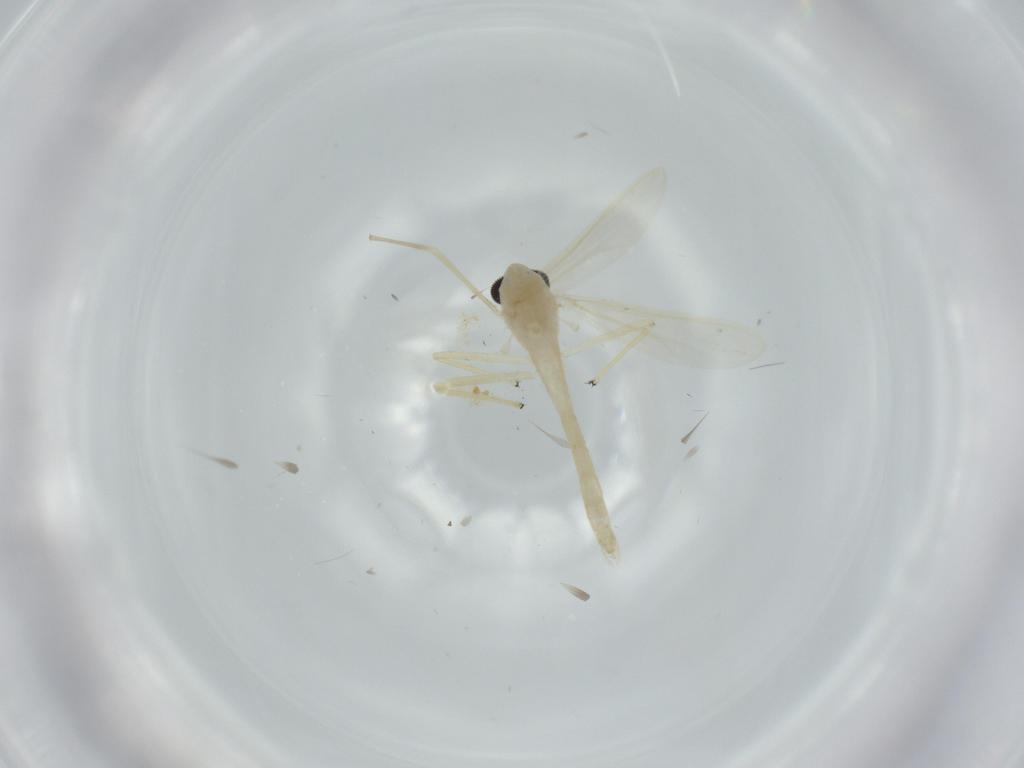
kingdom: Animalia
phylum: Arthropoda
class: Insecta
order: Diptera
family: Chironomidae
